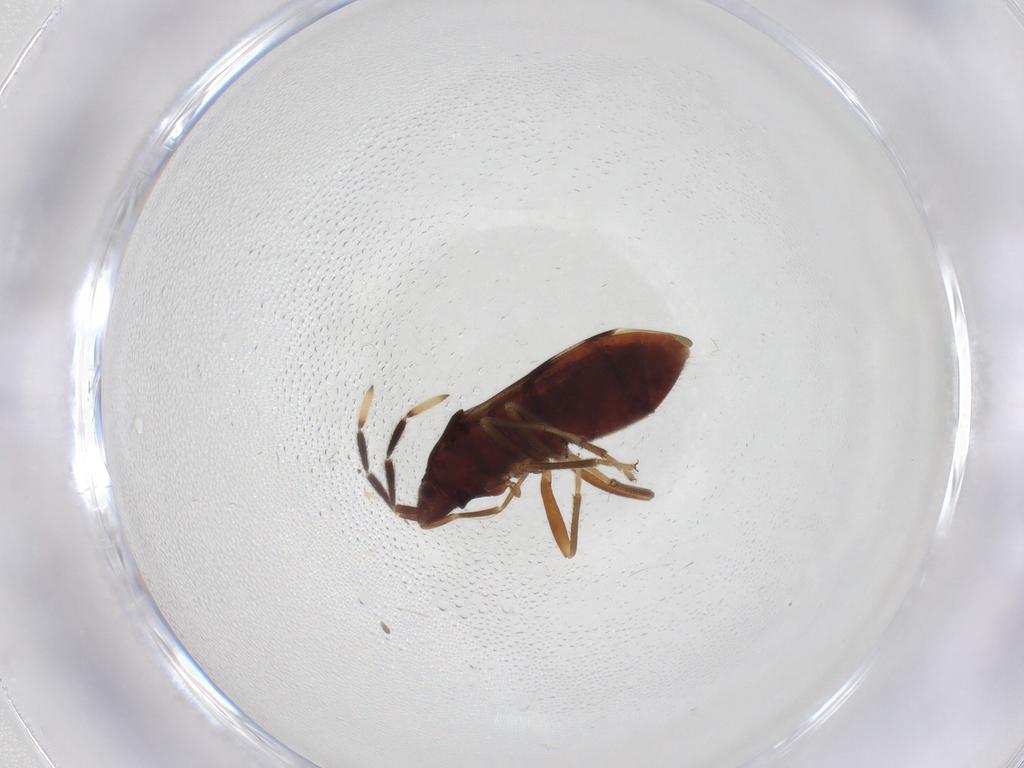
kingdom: Animalia
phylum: Arthropoda
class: Insecta
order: Hemiptera
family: Rhyparochromidae
